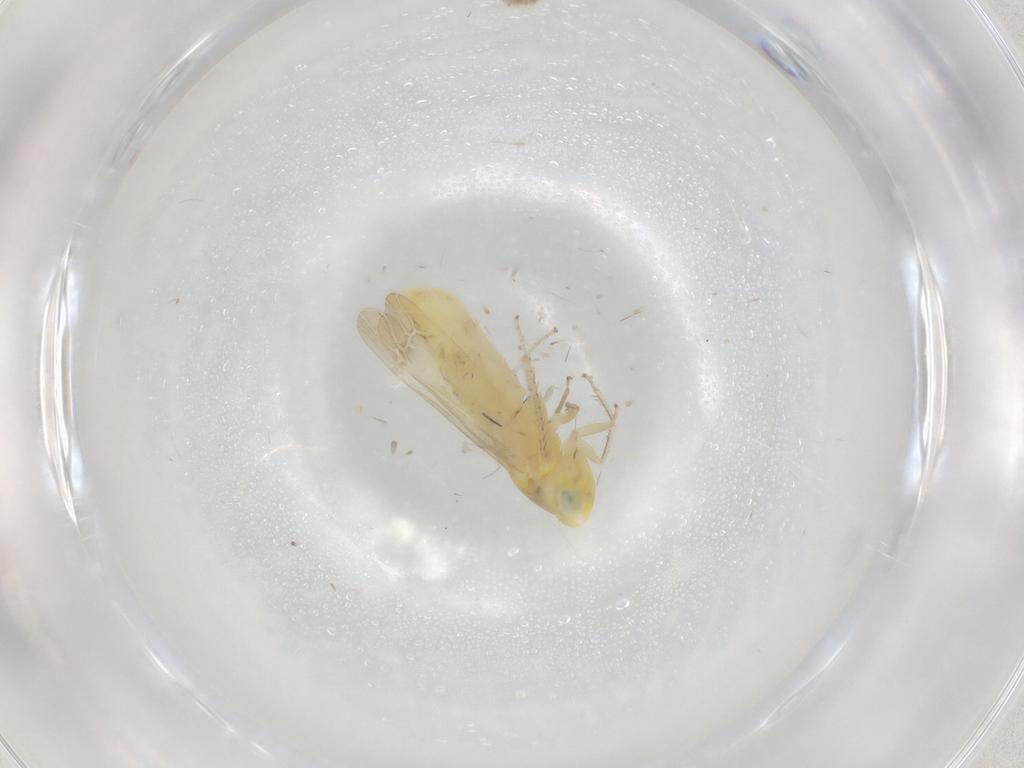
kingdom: Animalia
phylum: Arthropoda
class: Insecta
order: Hemiptera
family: Cicadellidae
